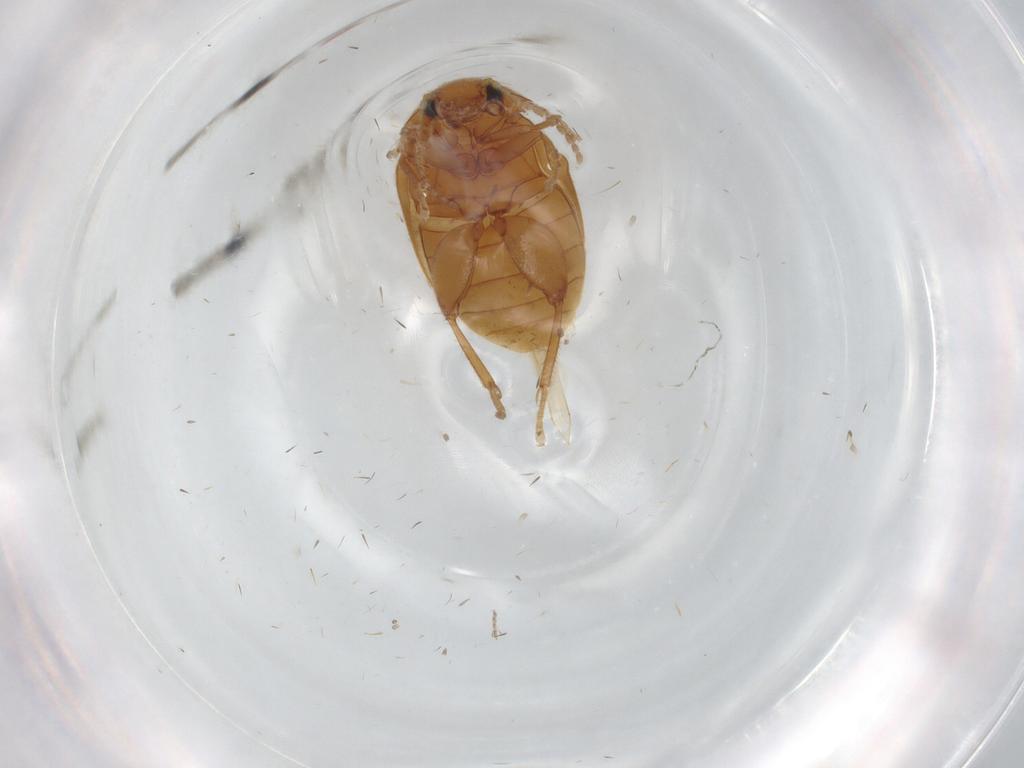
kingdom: Animalia
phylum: Arthropoda
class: Insecta
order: Coleoptera
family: Scirtidae
